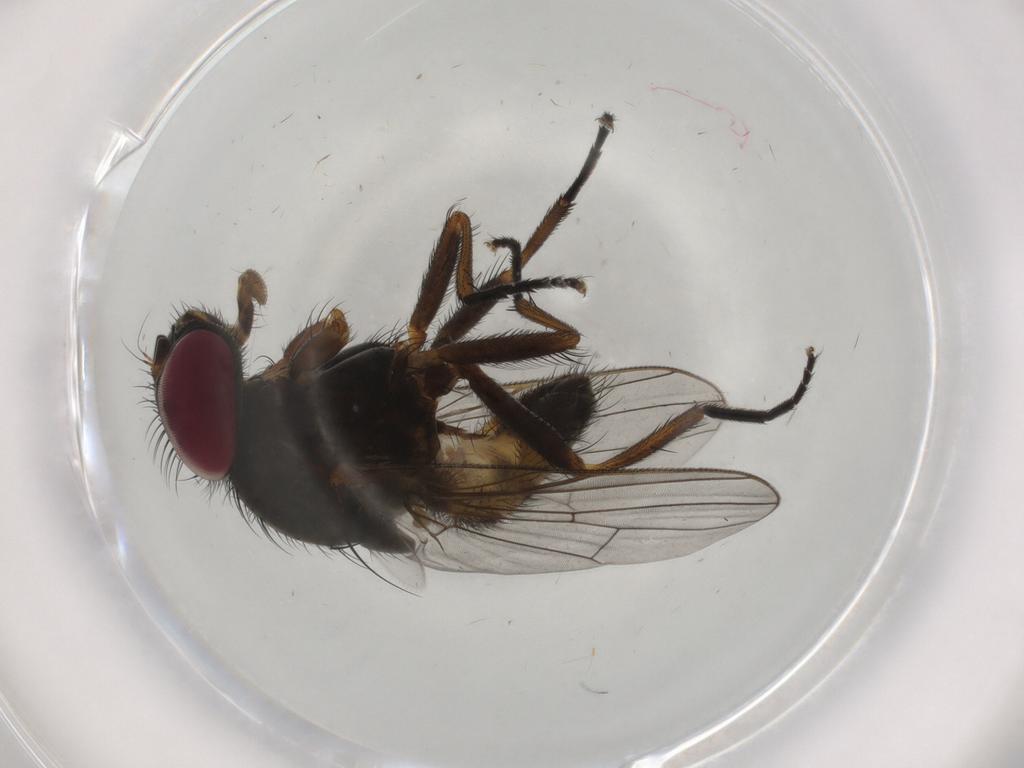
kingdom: Animalia
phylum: Arthropoda
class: Insecta
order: Diptera
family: Fannia
